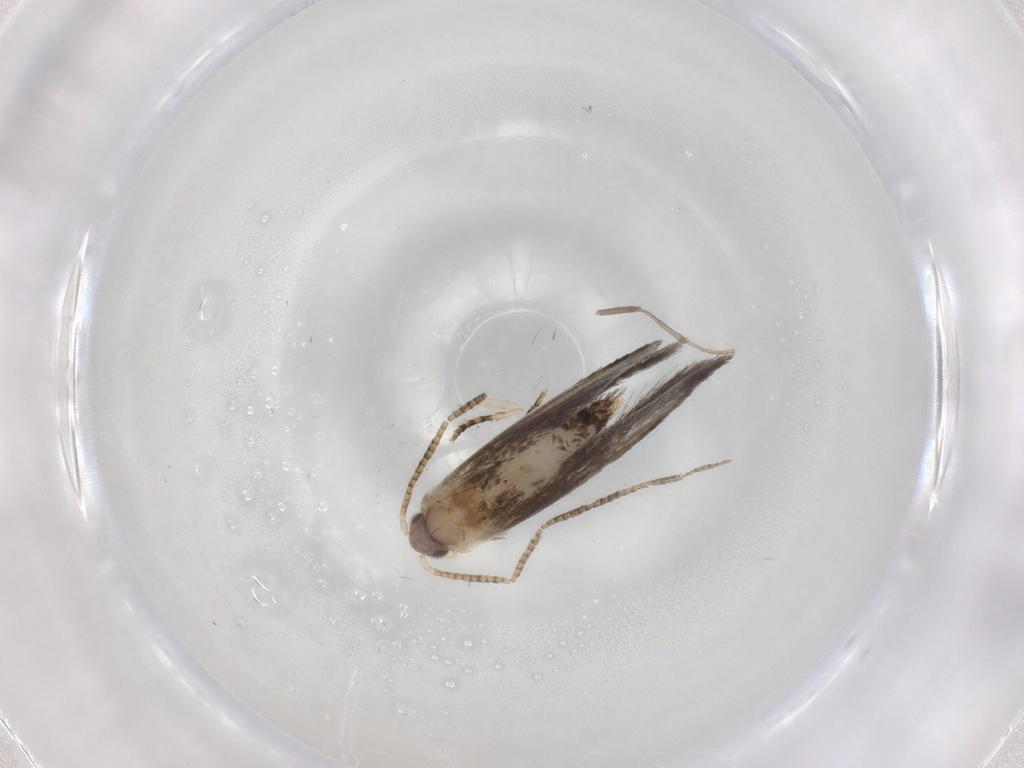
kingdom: Animalia
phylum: Arthropoda
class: Insecta
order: Lepidoptera
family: Tineidae
